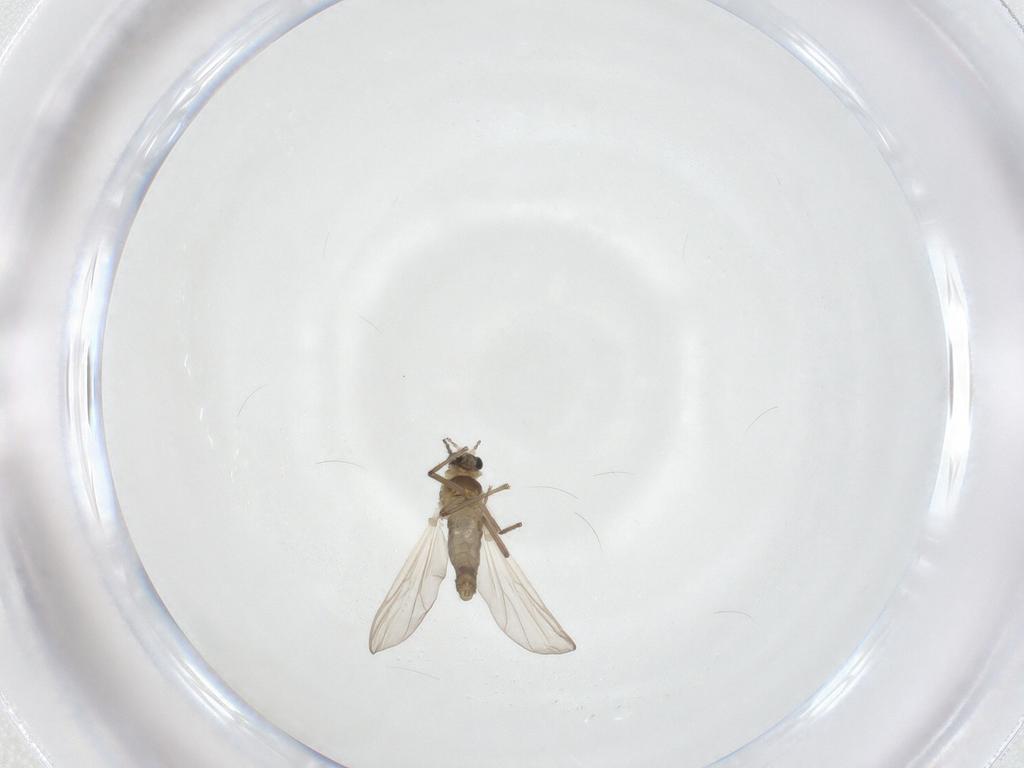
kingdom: Animalia
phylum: Arthropoda
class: Insecta
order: Diptera
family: Chironomidae
